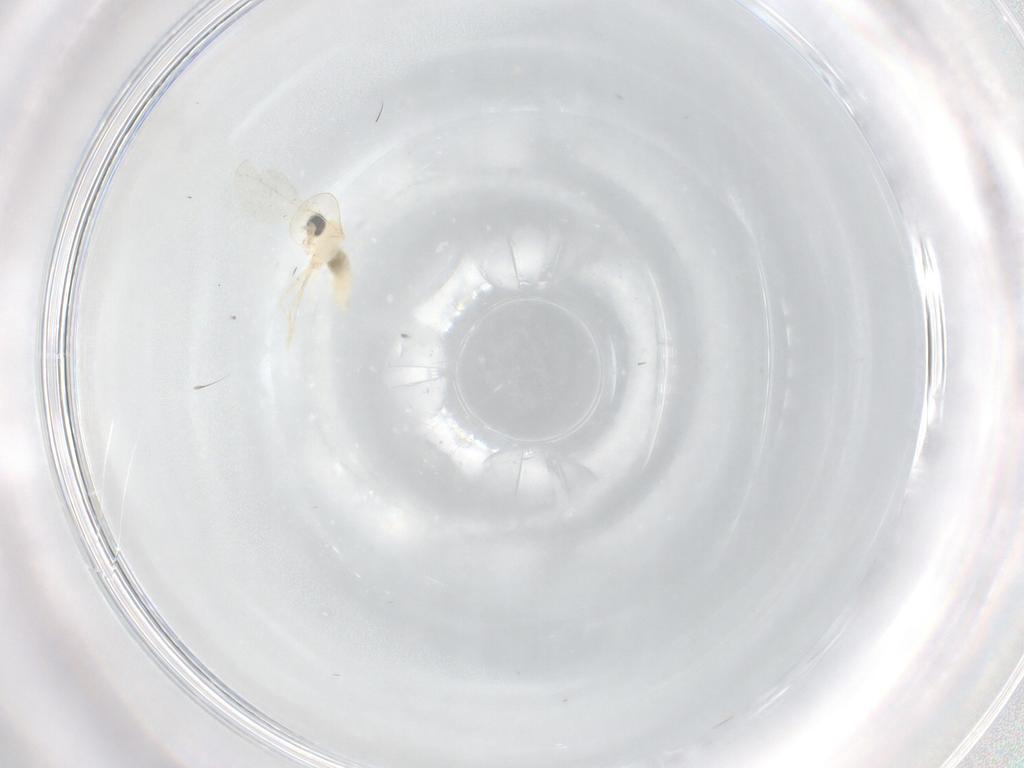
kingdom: Animalia
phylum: Arthropoda
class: Insecta
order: Diptera
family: Cecidomyiidae
